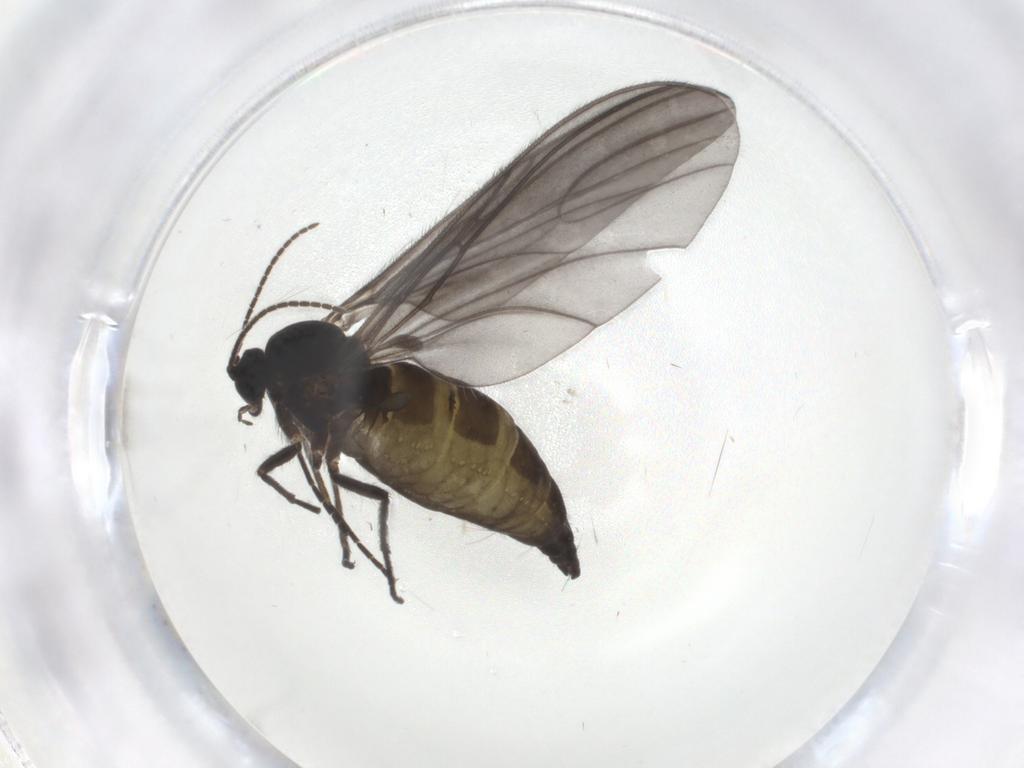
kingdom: Animalia
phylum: Arthropoda
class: Insecta
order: Diptera
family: Sciaridae
